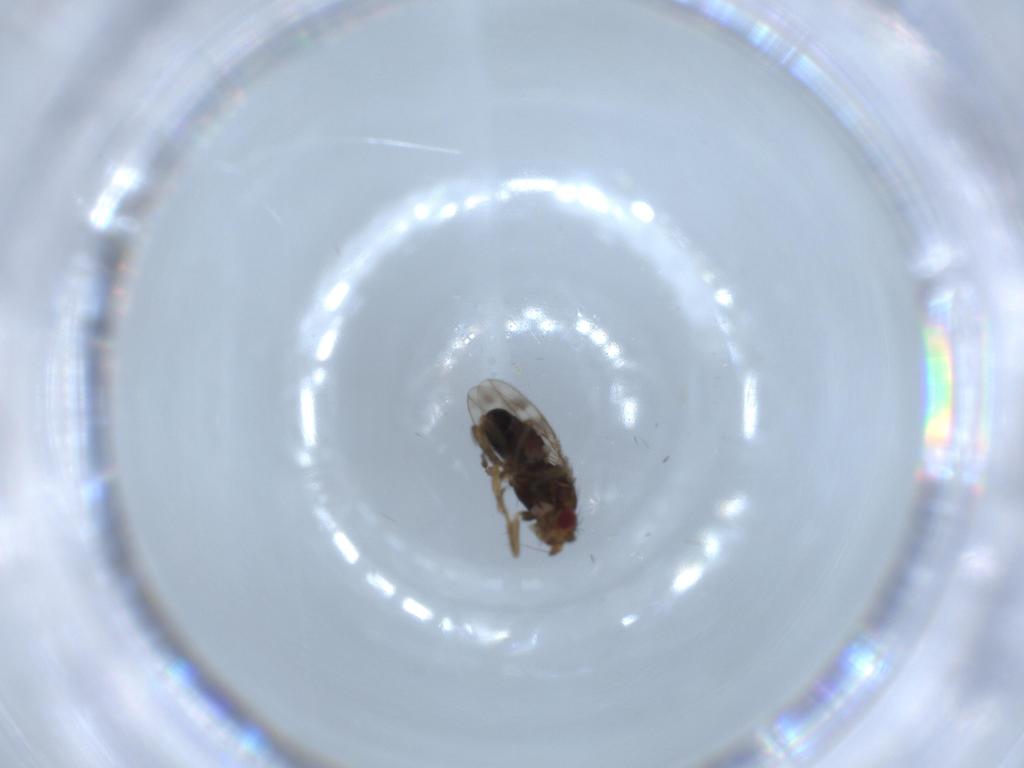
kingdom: Animalia
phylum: Arthropoda
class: Insecta
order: Diptera
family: Sphaeroceridae
